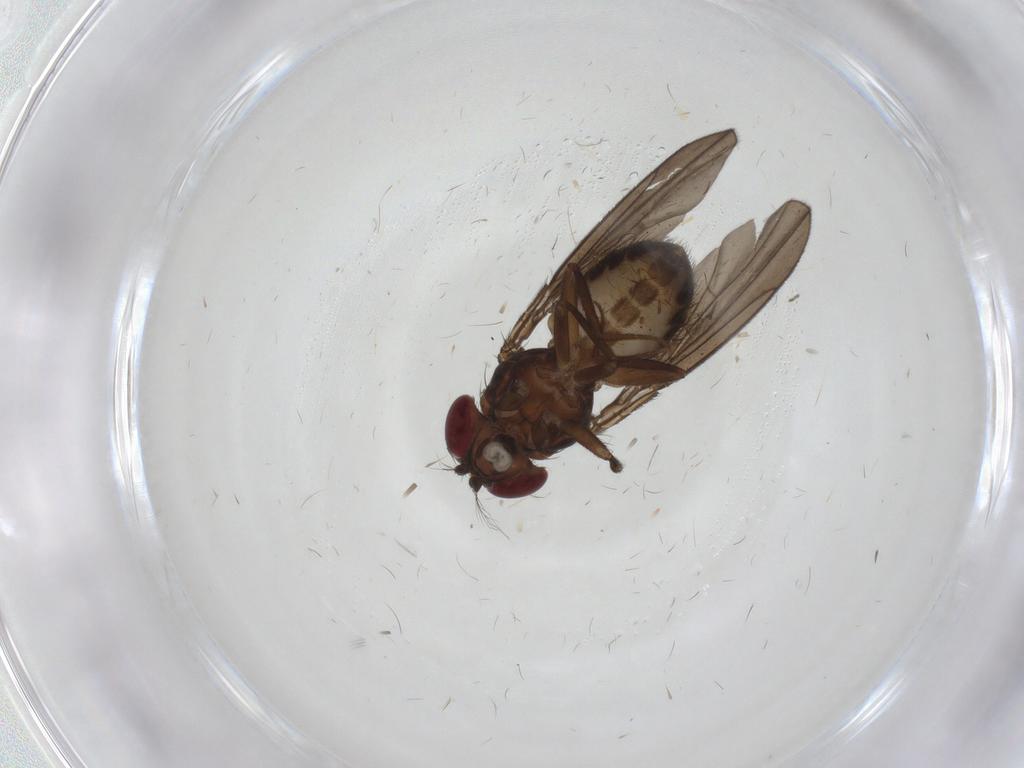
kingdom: Animalia
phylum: Arthropoda
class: Insecta
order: Diptera
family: Drosophilidae
